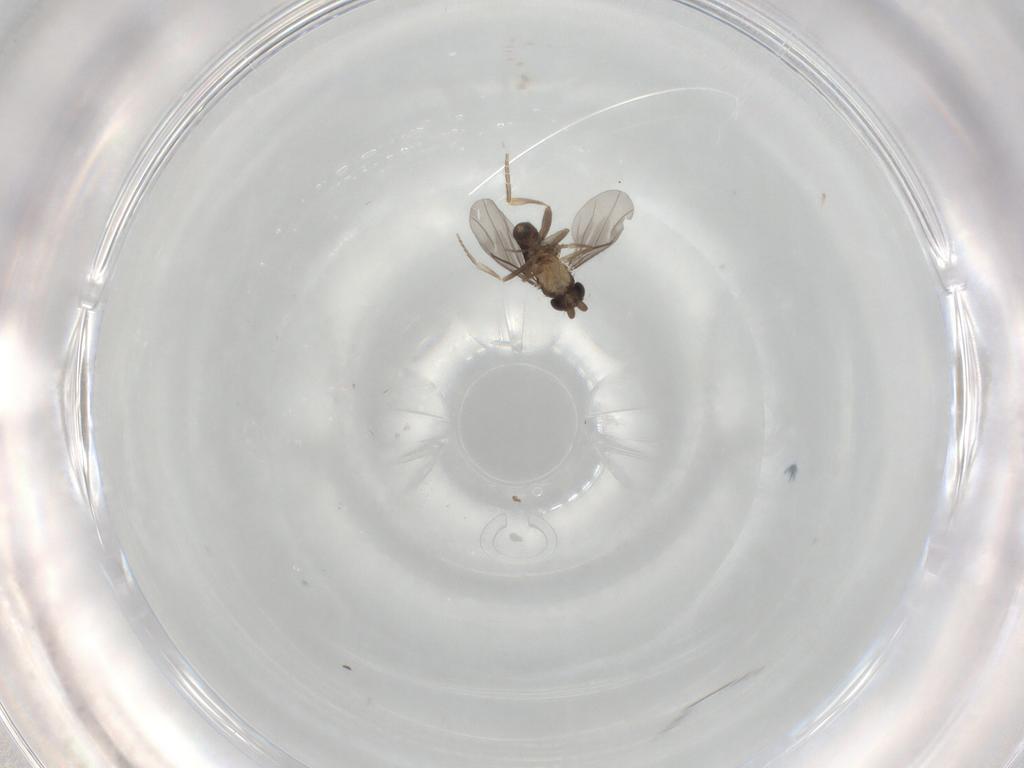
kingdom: Animalia
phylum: Arthropoda
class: Insecta
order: Diptera
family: Phoridae
